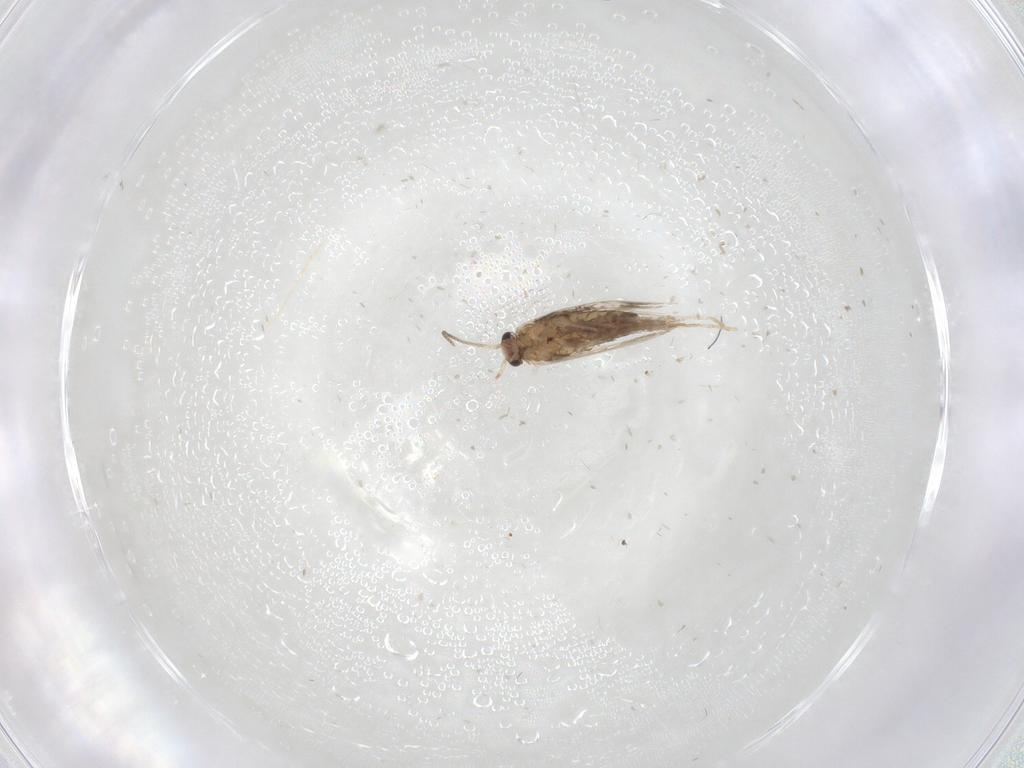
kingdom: Animalia
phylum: Arthropoda
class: Insecta
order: Lepidoptera
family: Nepticulidae
